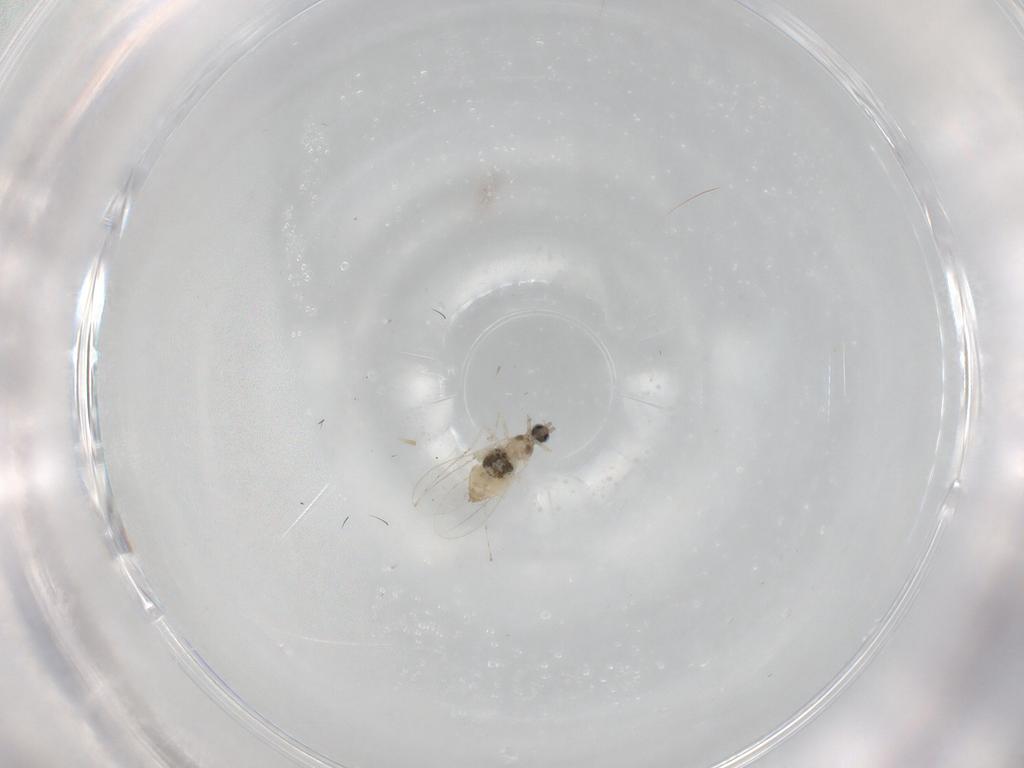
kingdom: Animalia
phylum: Arthropoda
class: Insecta
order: Diptera
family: Cecidomyiidae
